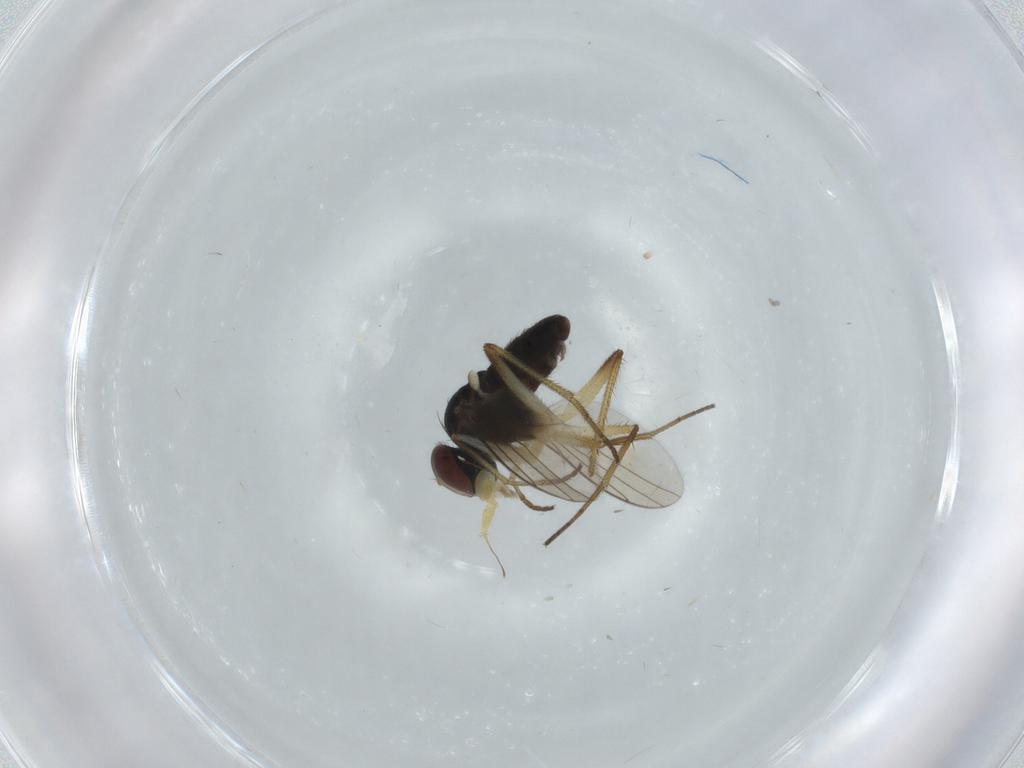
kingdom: Animalia
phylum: Arthropoda
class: Insecta
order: Diptera
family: Dolichopodidae
